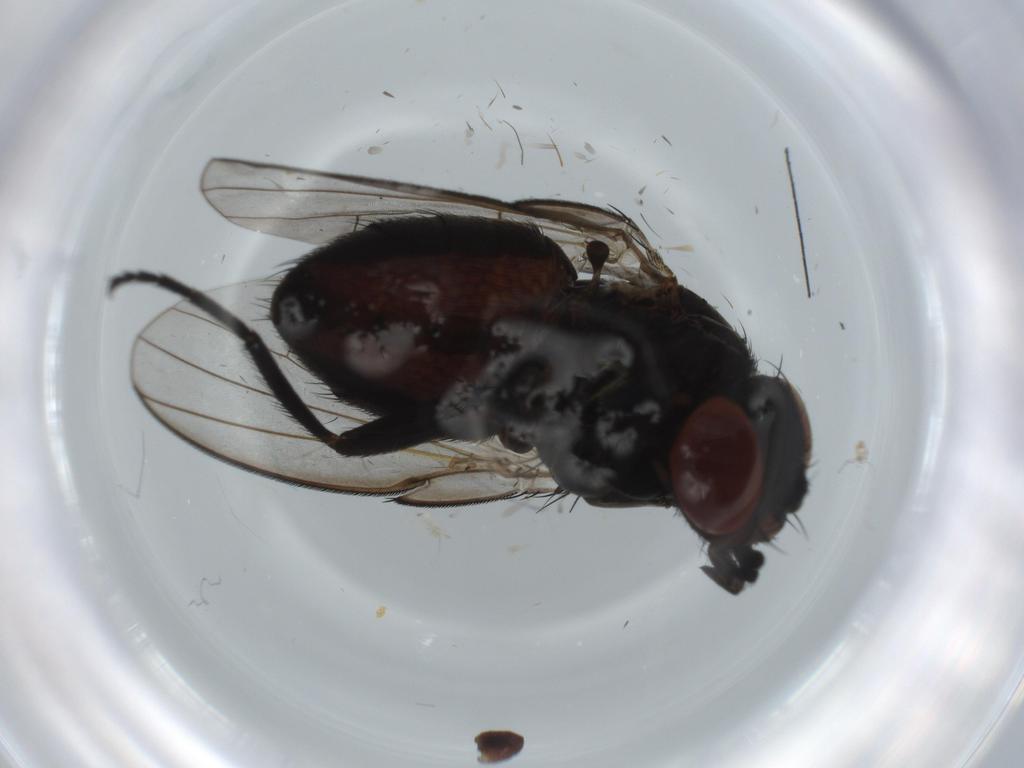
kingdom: Animalia
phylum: Arthropoda
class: Insecta
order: Diptera
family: Milichiidae
